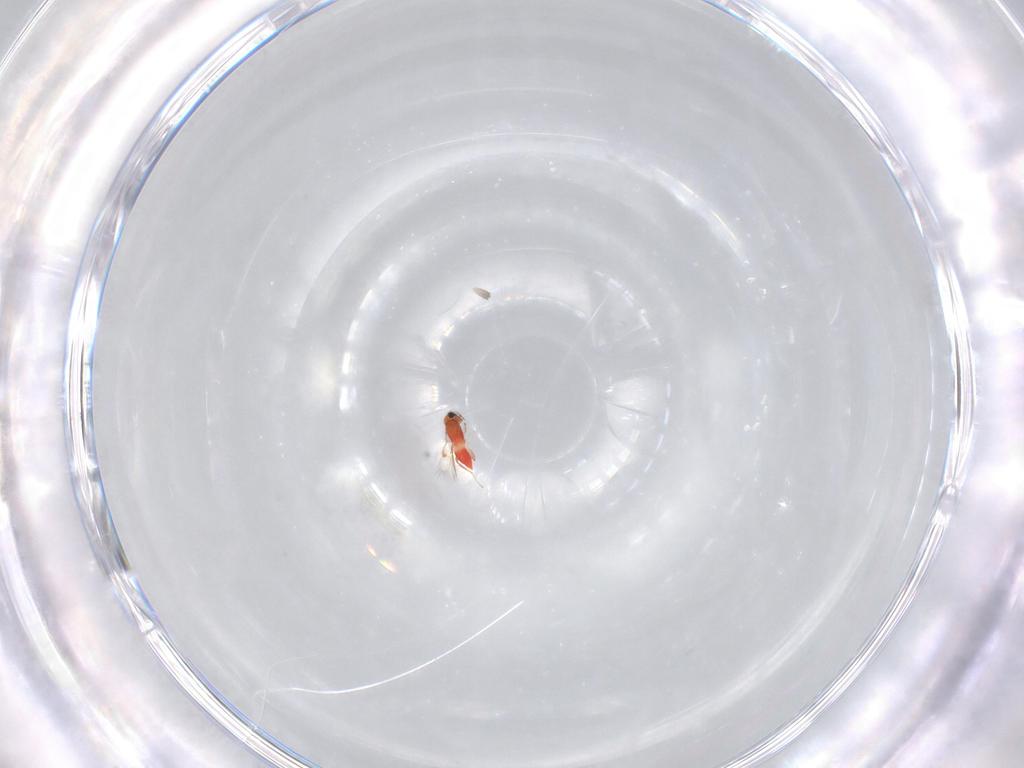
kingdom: Animalia
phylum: Arthropoda
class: Insecta
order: Hymenoptera
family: Trichogrammatidae
